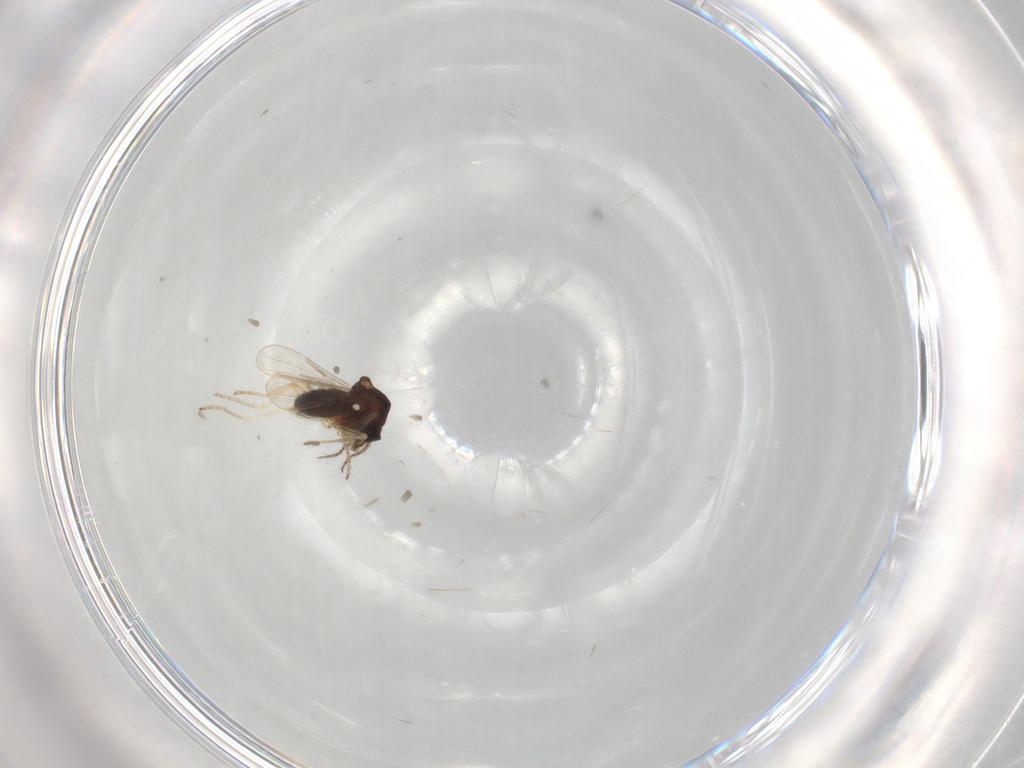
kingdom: Animalia
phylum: Arthropoda
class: Insecta
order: Diptera
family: Ceratopogonidae
